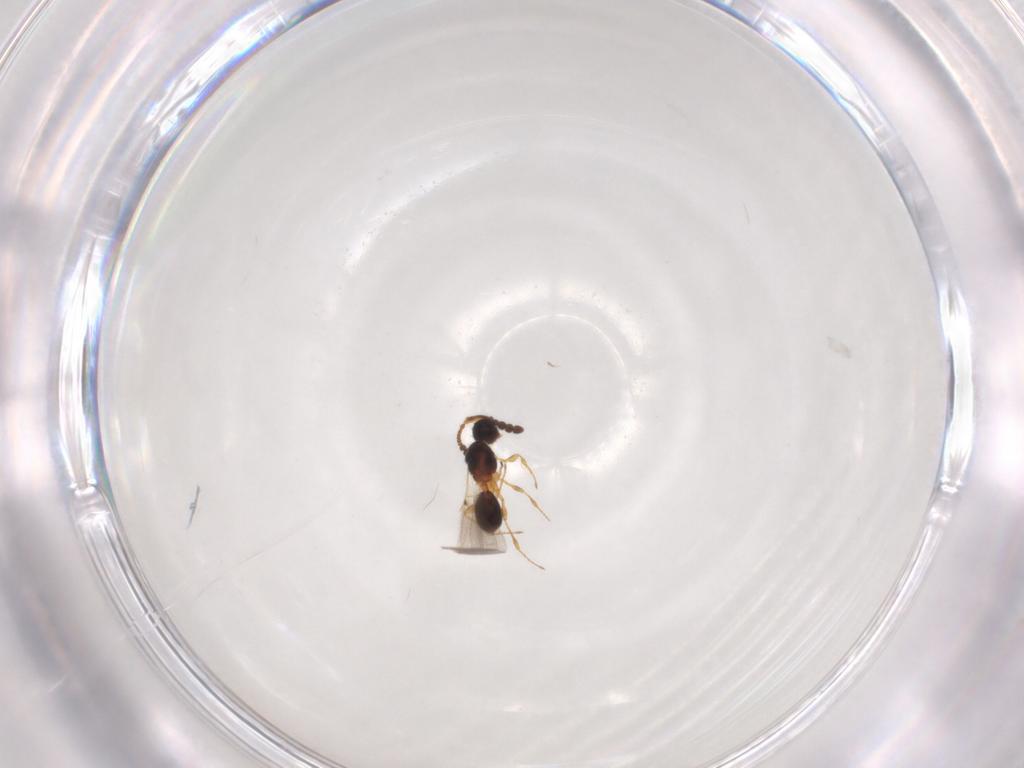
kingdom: Animalia
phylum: Arthropoda
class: Insecta
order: Hymenoptera
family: Diapriidae
